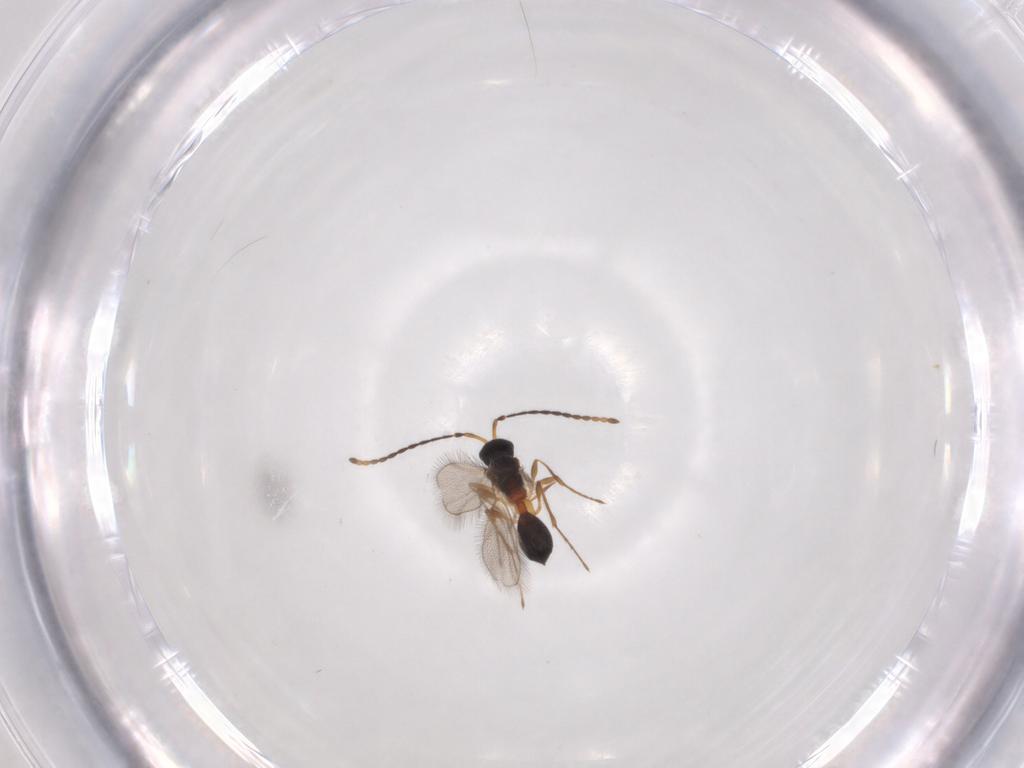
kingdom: Animalia
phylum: Arthropoda
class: Insecta
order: Hymenoptera
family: Diapriidae
